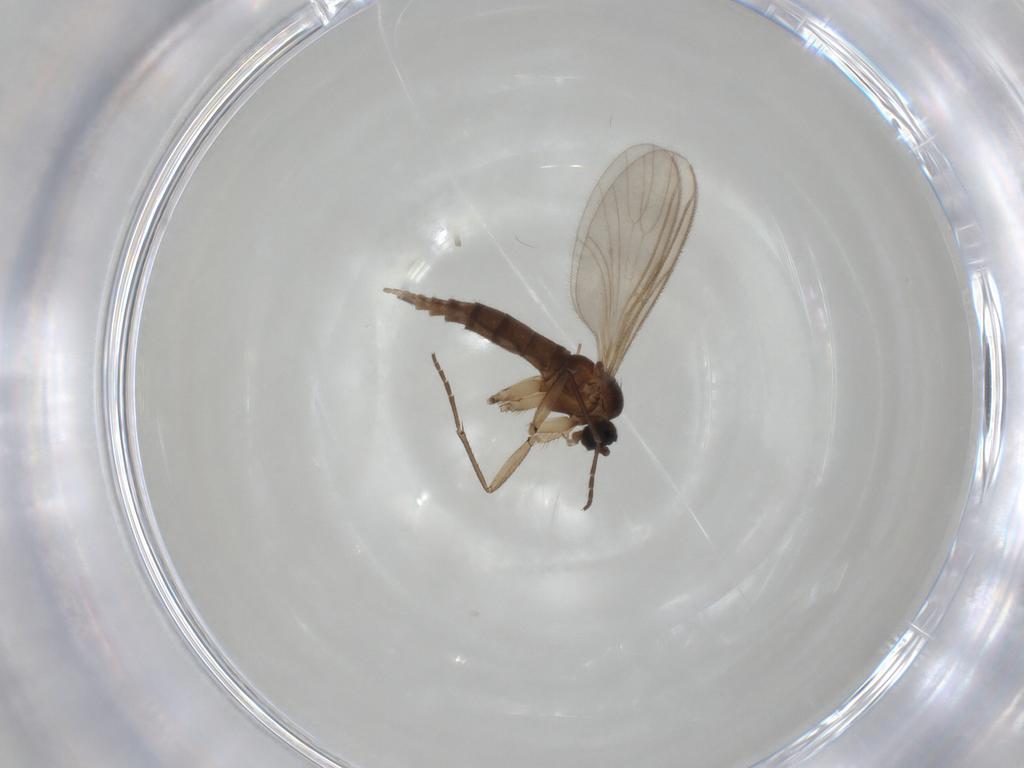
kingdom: Animalia
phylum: Arthropoda
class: Insecta
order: Diptera
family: Sciaridae
